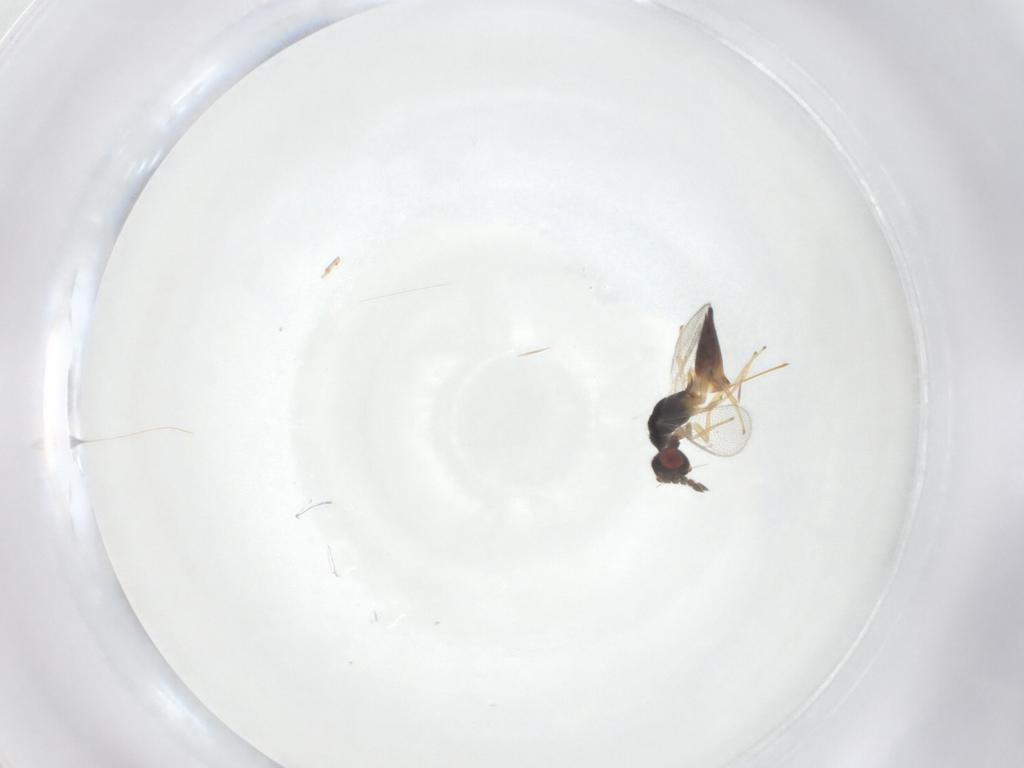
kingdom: Animalia
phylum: Arthropoda
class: Insecta
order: Hymenoptera
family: Eulophidae
